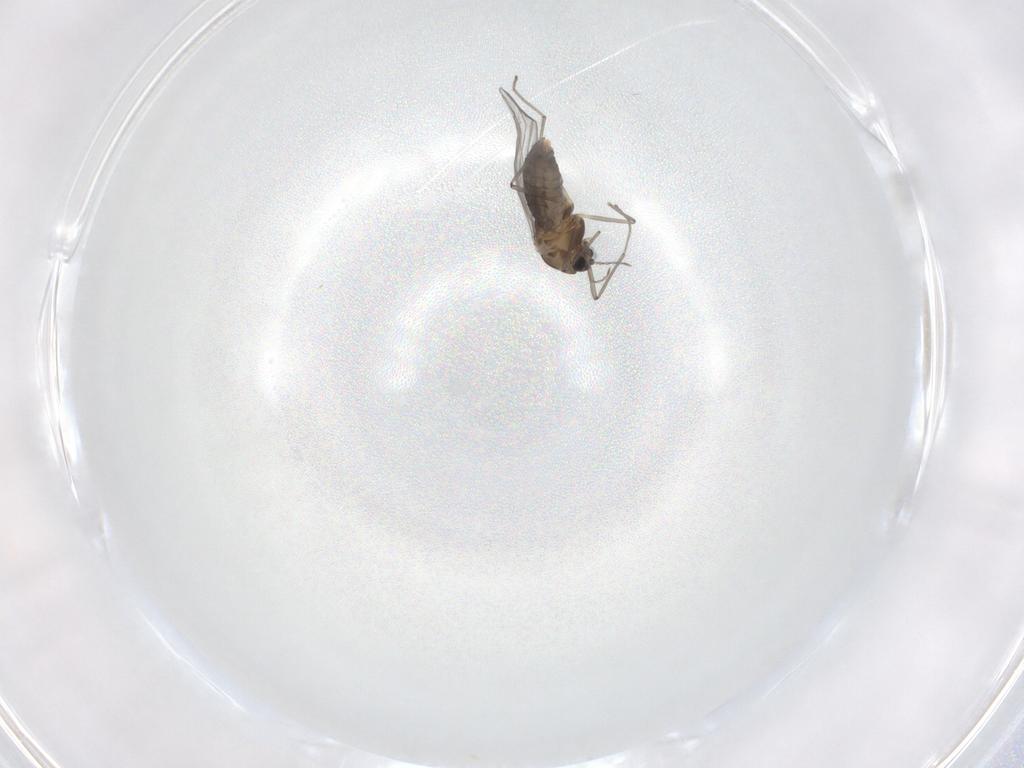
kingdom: Animalia
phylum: Arthropoda
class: Insecta
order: Diptera
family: Chironomidae
